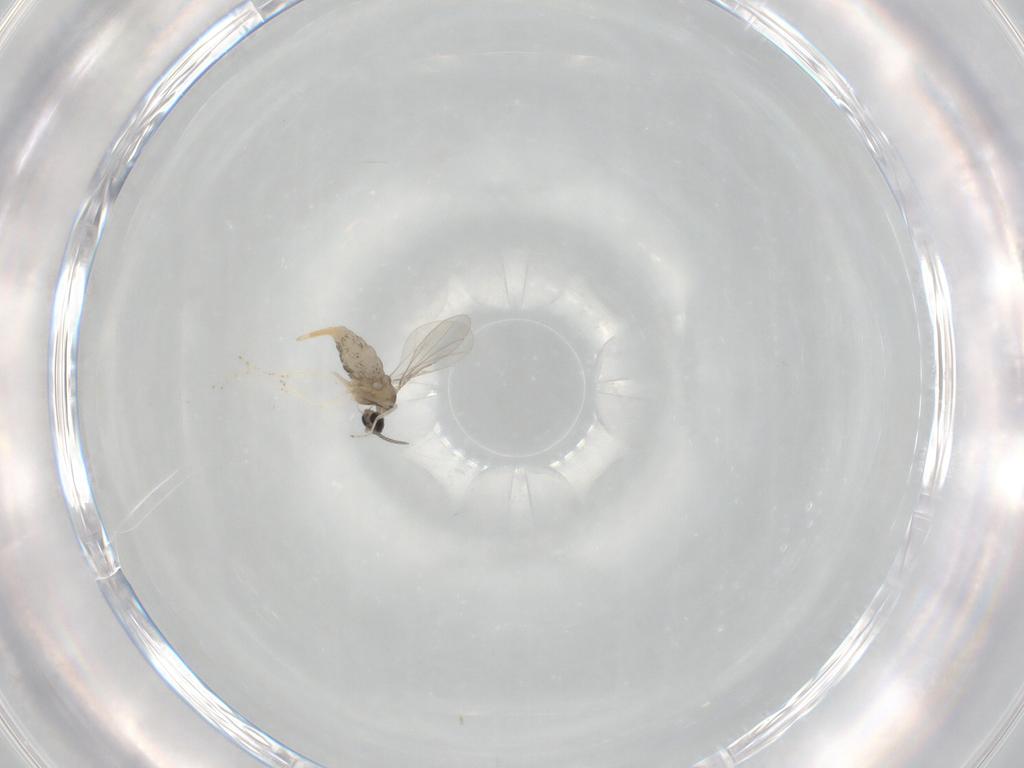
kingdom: Animalia
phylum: Arthropoda
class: Insecta
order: Diptera
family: Cecidomyiidae
